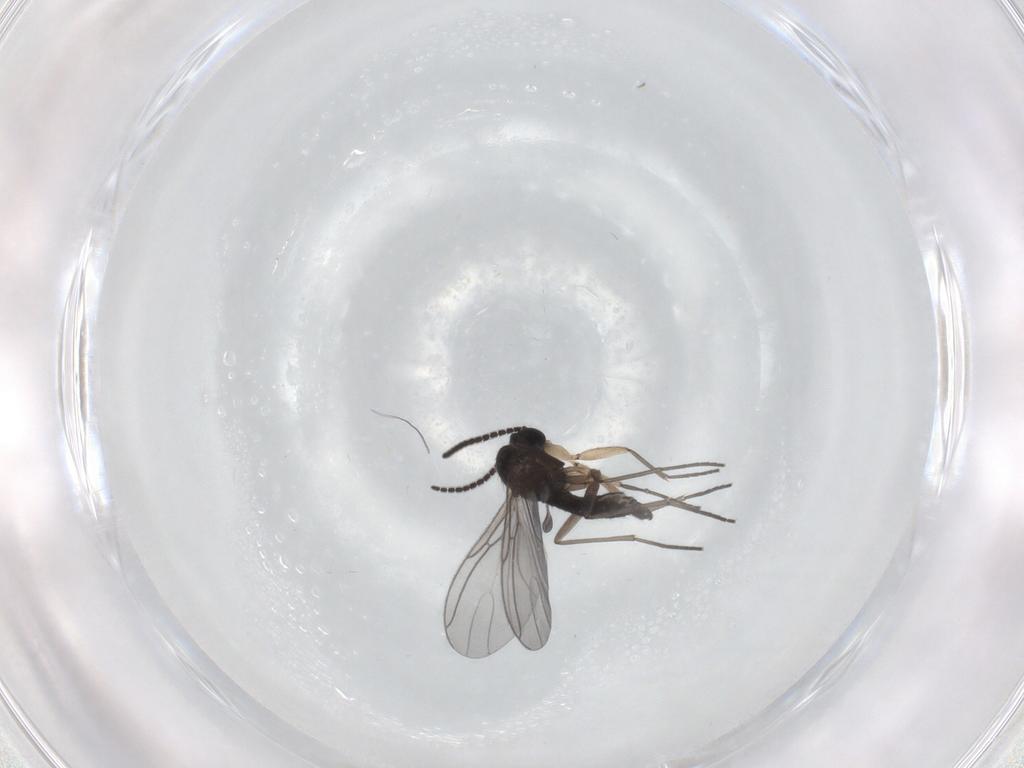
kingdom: Animalia
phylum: Arthropoda
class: Insecta
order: Diptera
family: Sciaridae
